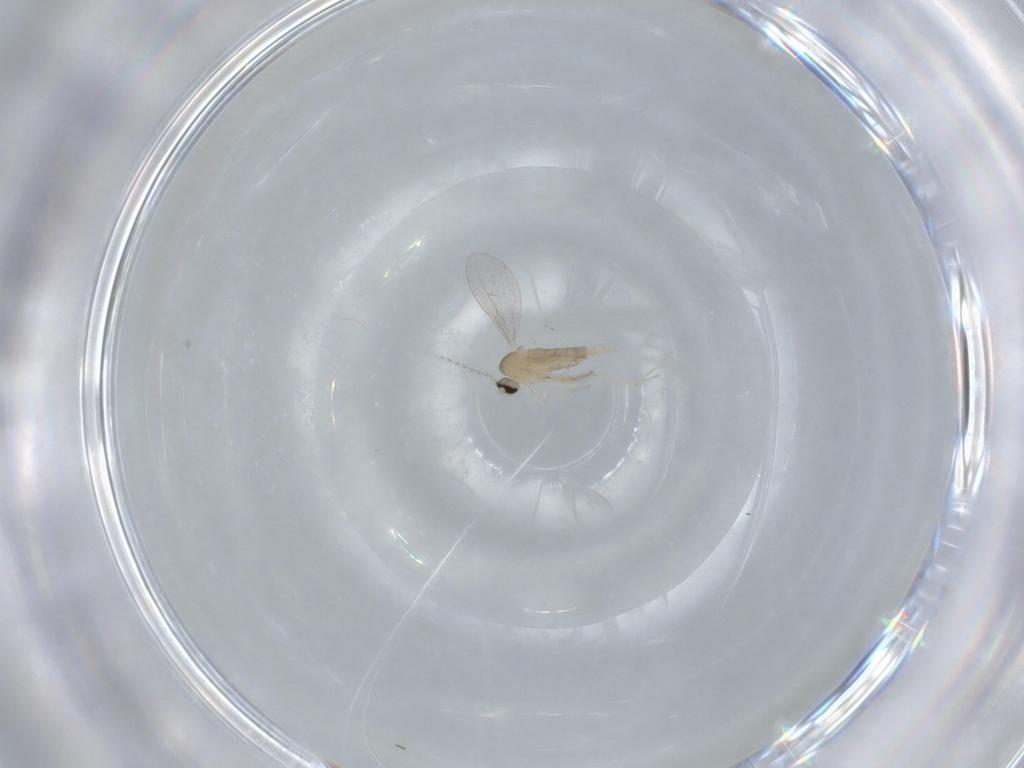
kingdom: Animalia
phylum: Arthropoda
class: Insecta
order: Diptera
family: Cecidomyiidae
